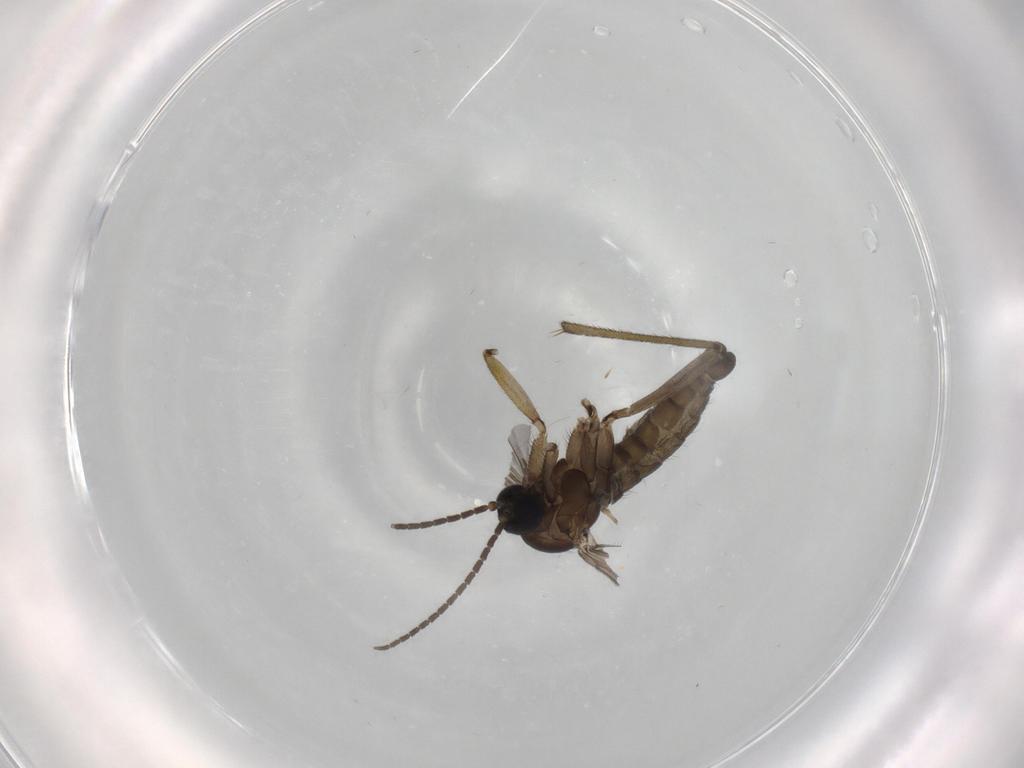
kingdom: Animalia
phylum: Arthropoda
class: Insecta
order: Diptera
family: Sciaridae
